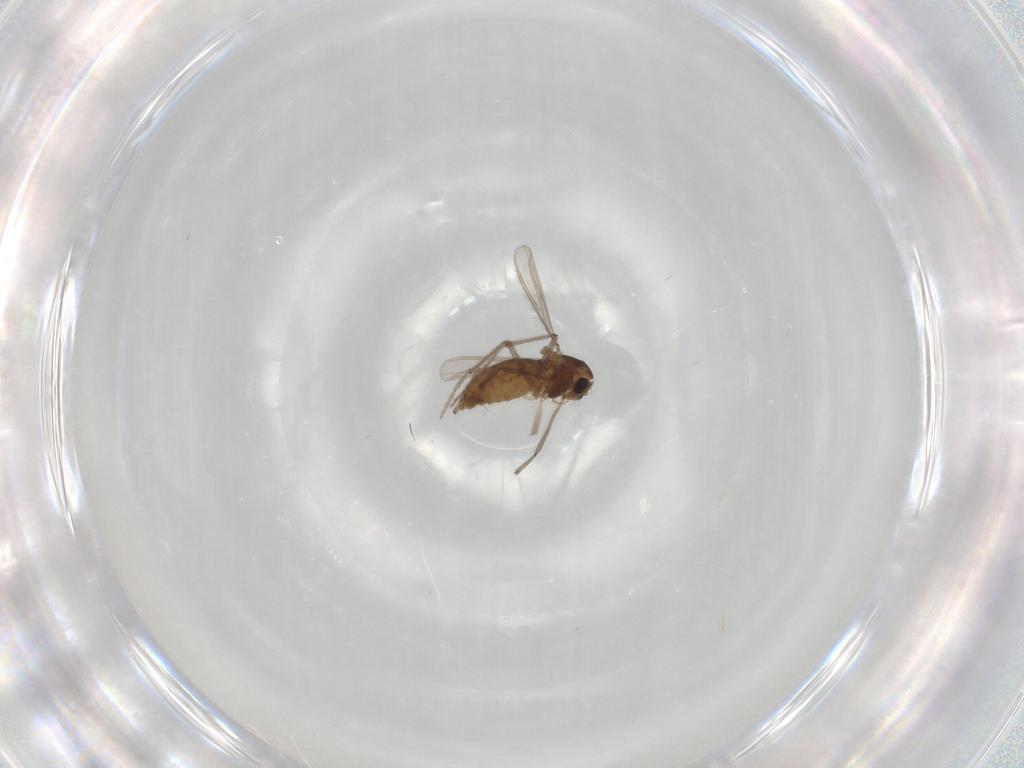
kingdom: Animalia
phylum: Arthropoda
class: Insecta
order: Diptera
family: Chironomidae
